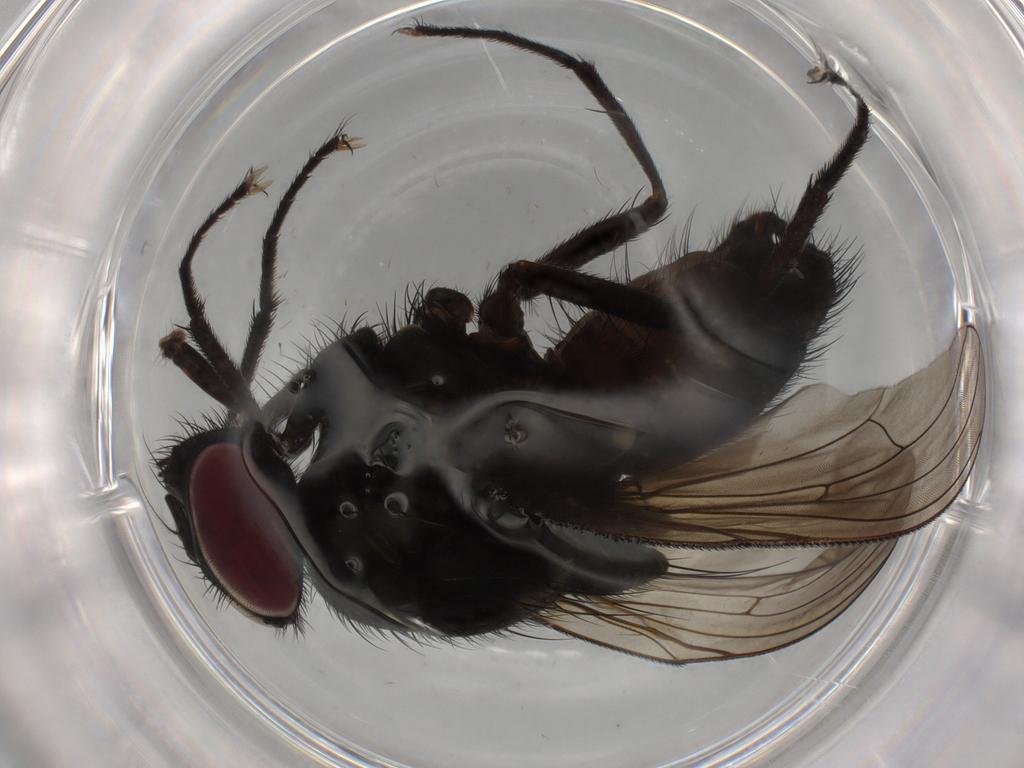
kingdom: Animalia
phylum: Arthropoda
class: Insecta
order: Diptera
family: Muscidae
